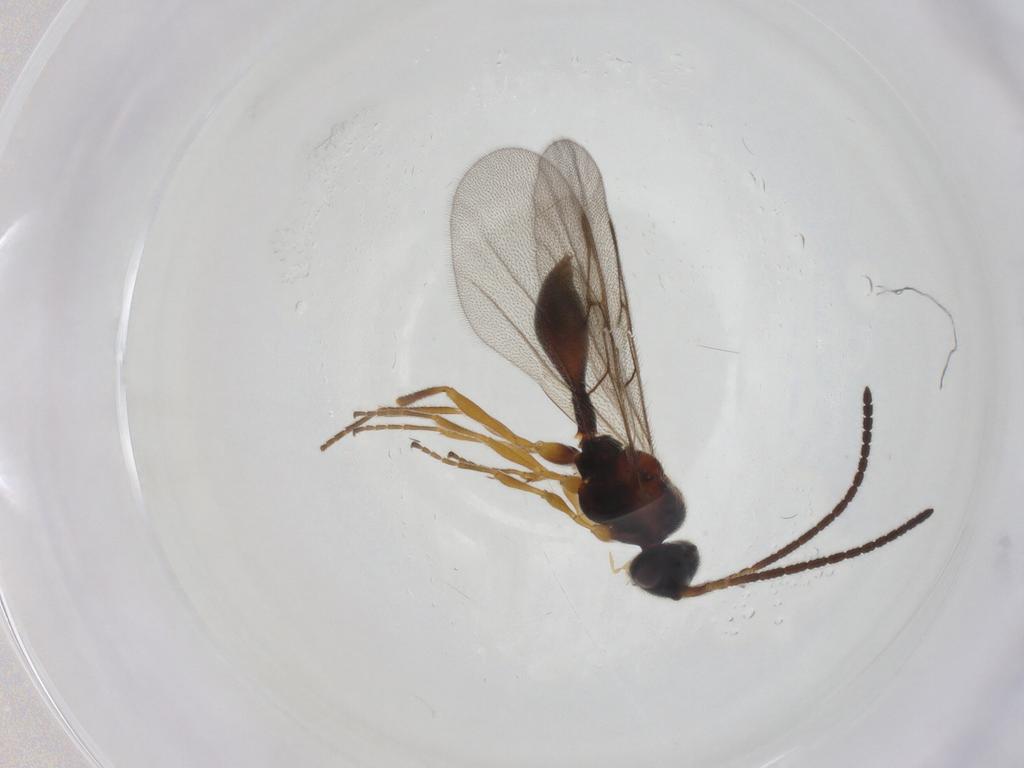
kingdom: Animalia
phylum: Arthropoda
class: Insecta
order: Hymenoptera
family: Diapriidae
